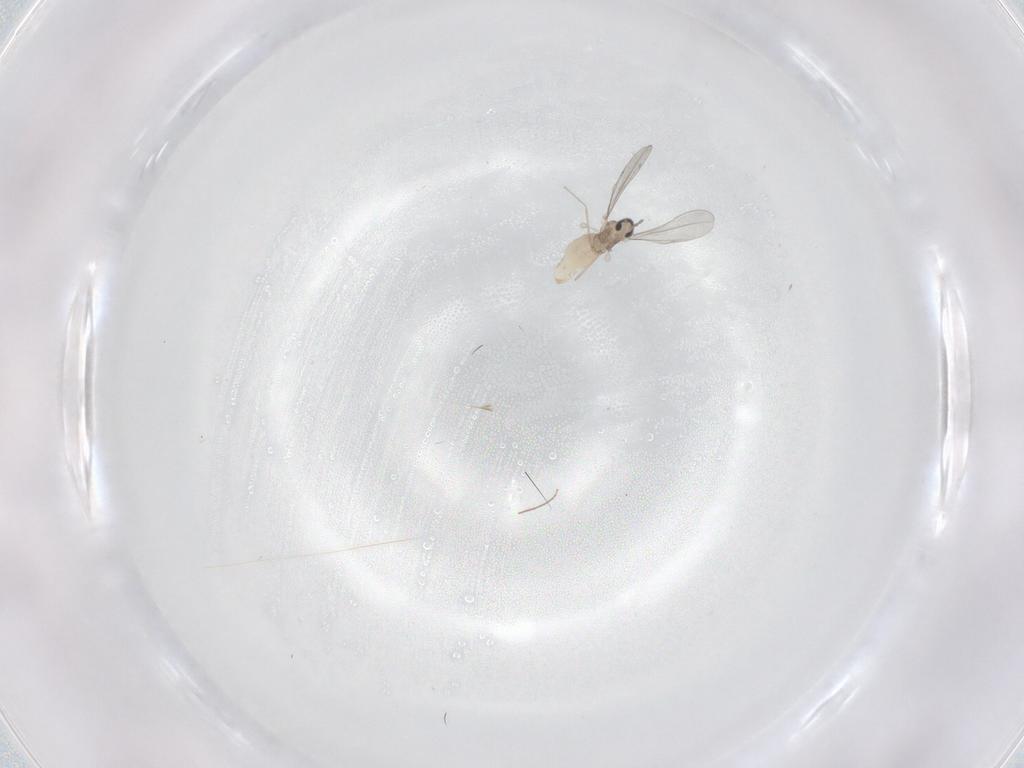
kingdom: Animalia
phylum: Arthropoda
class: Insecta
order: Diptera
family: Cecidomyiidae
